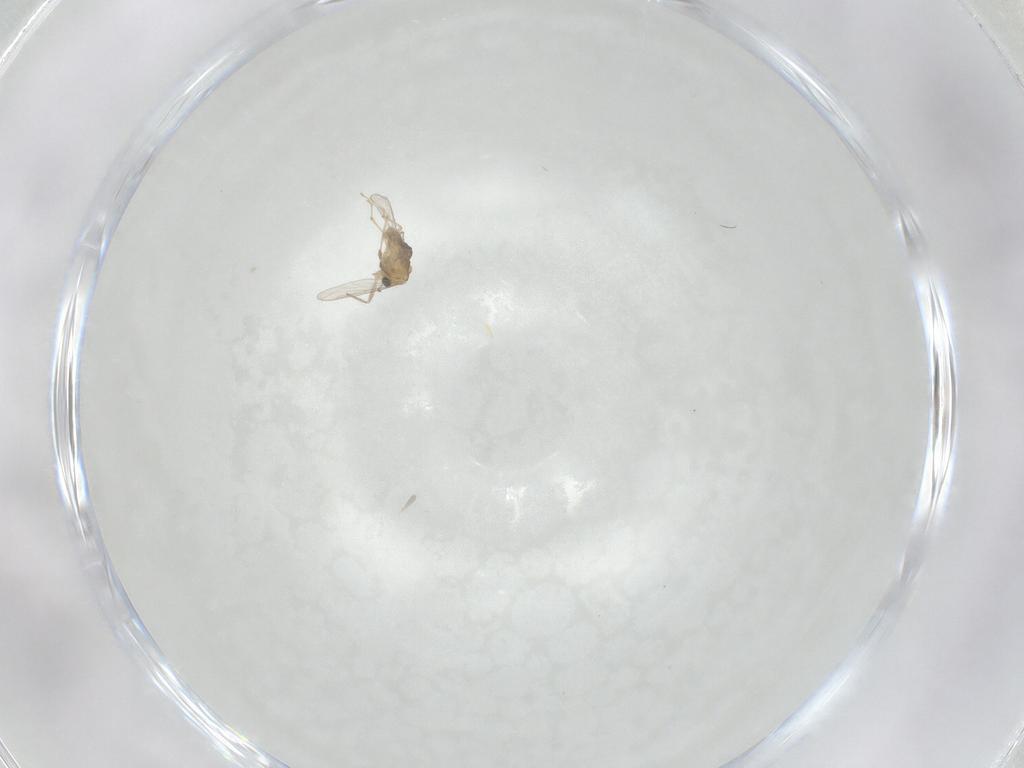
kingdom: Animalia
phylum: Arthropoda
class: Insecta
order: Diptera
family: Chironomidae
